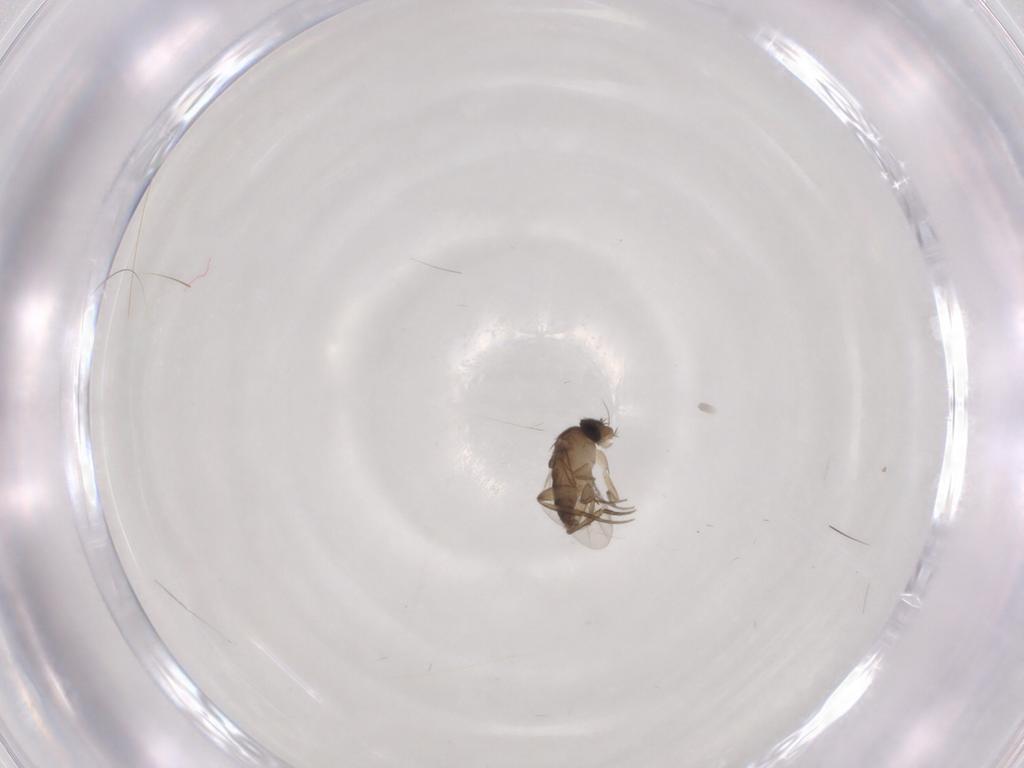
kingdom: Animalia
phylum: Arthropoda
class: Insecta
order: Diptera
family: Phoridae
